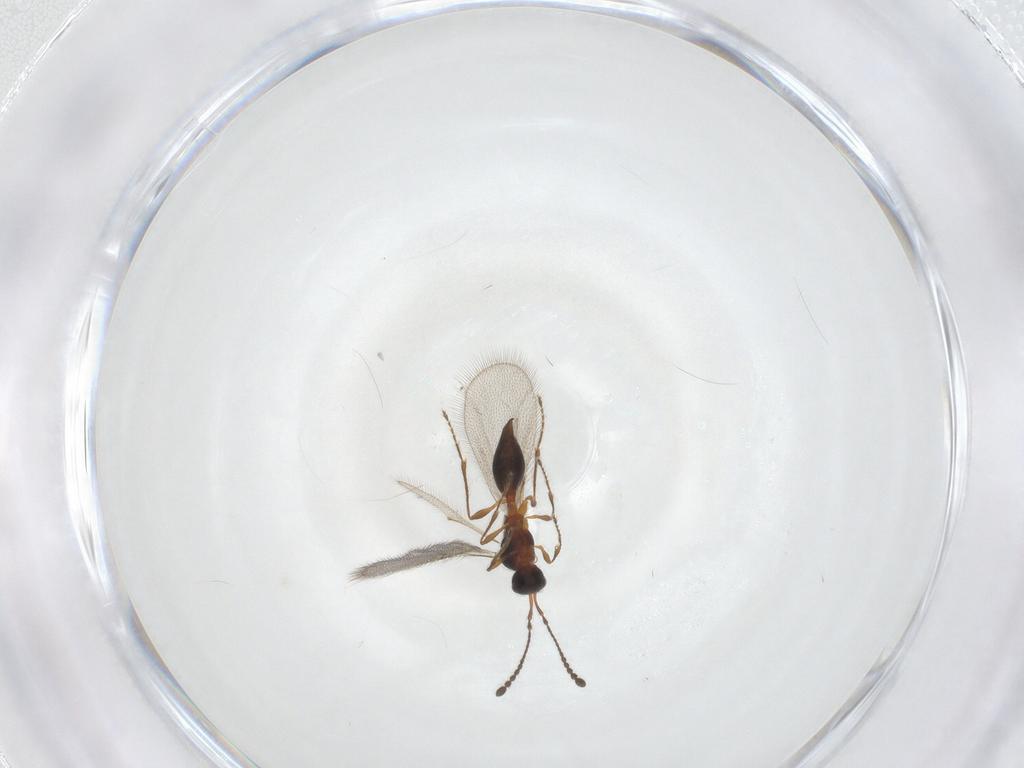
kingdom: Animalia
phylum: Arthropoda
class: Insecta
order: Hymenoptera
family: Diapriidae
